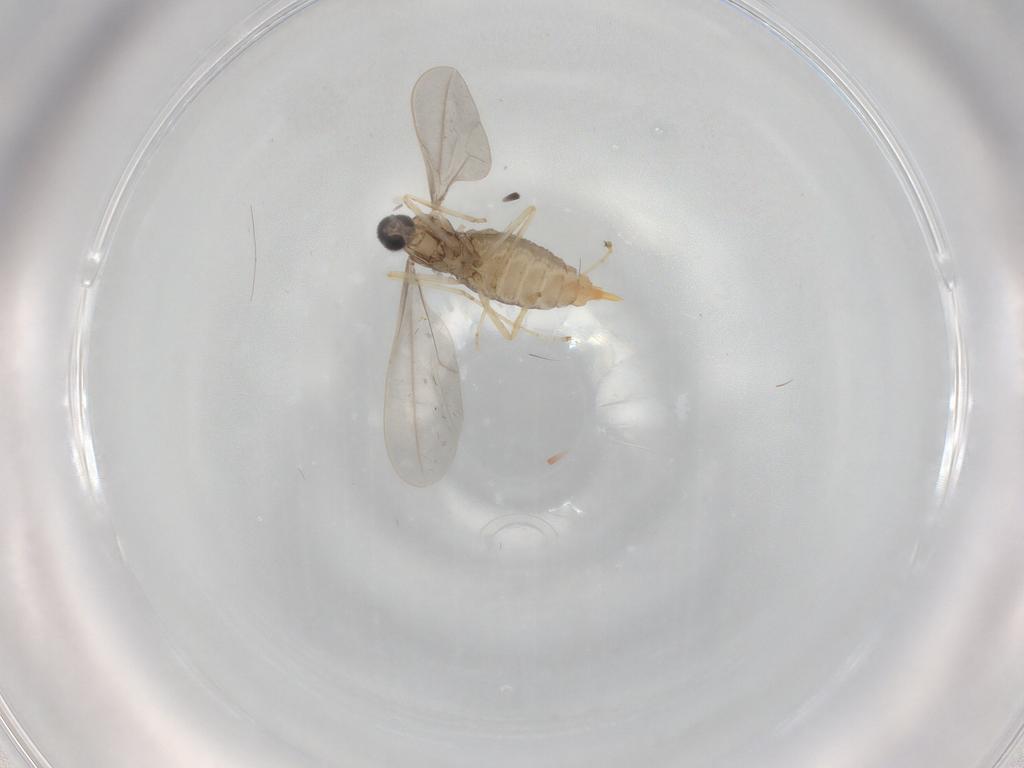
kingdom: Animalia
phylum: Arthropoda
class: Insecta
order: Diptera
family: Cecidomyiidae
